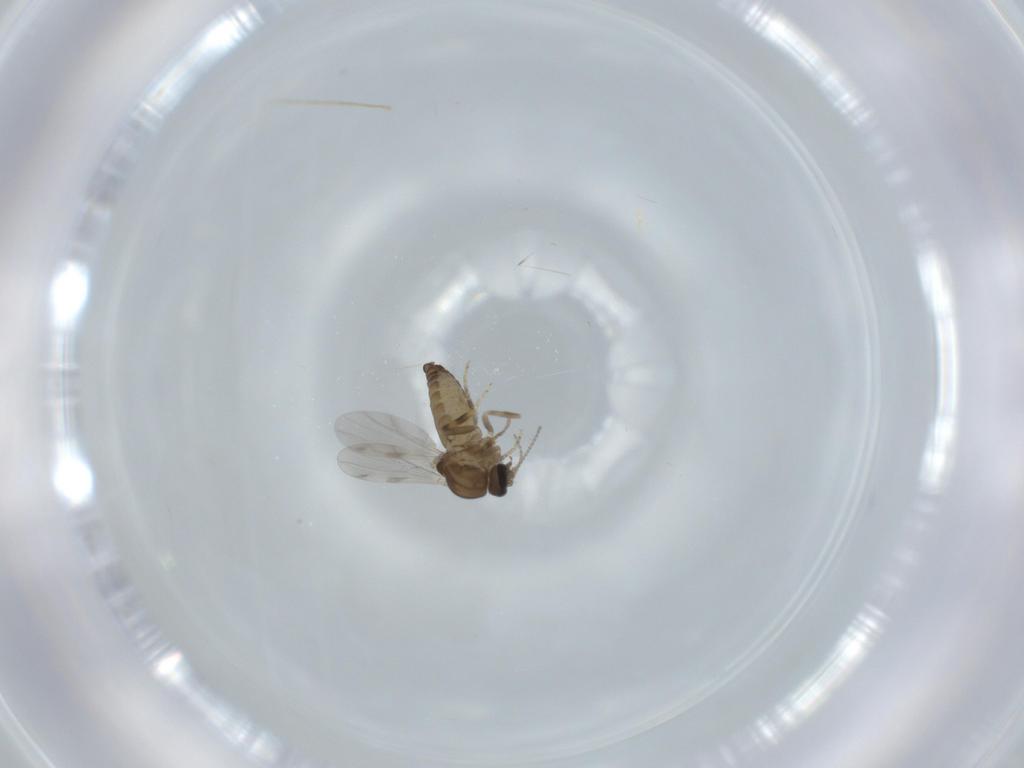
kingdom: Animalia
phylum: Arthropoda
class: Insecta
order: Diptera
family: Ceratopogonidae
